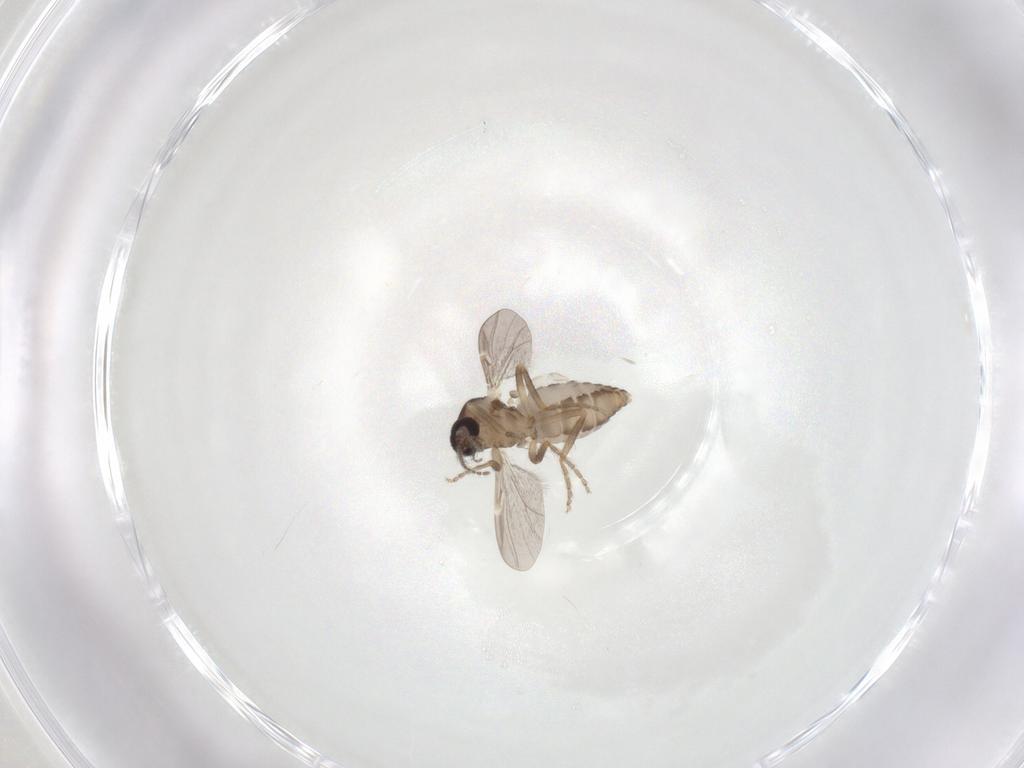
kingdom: Animalia
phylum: Arthropoda
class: Insecta
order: Diptera
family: Ceratopogonidae
